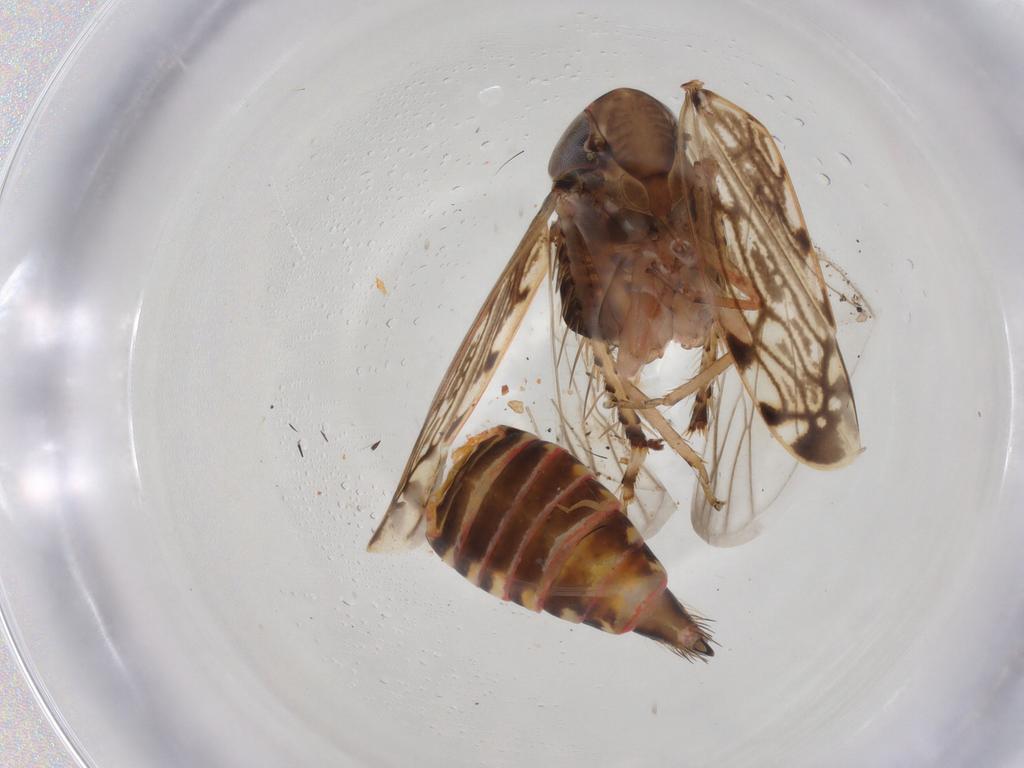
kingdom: Animalia
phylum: Arthropoda
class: Insecta
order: Hemiptera
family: Cicadellidae
